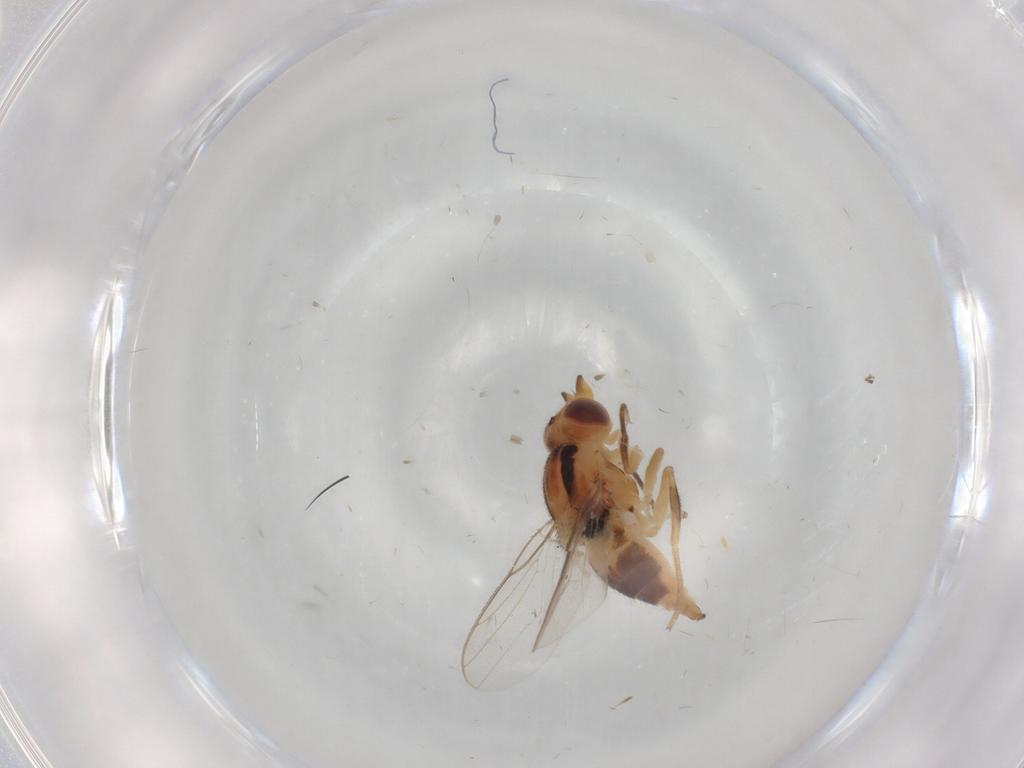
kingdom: Animalia
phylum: Arthropoda
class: Insecta
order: Diptera
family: Chloropidae
